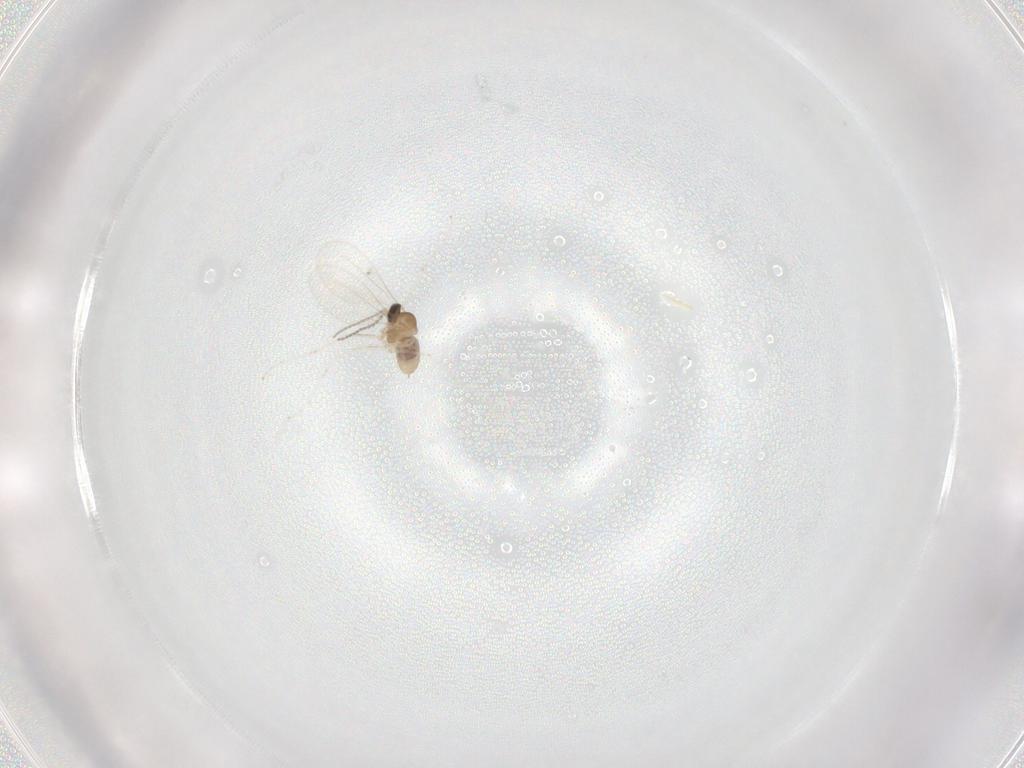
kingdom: Animalia
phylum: Arthropoda
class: Insecta
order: Diptera
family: Cecidomyiidae
